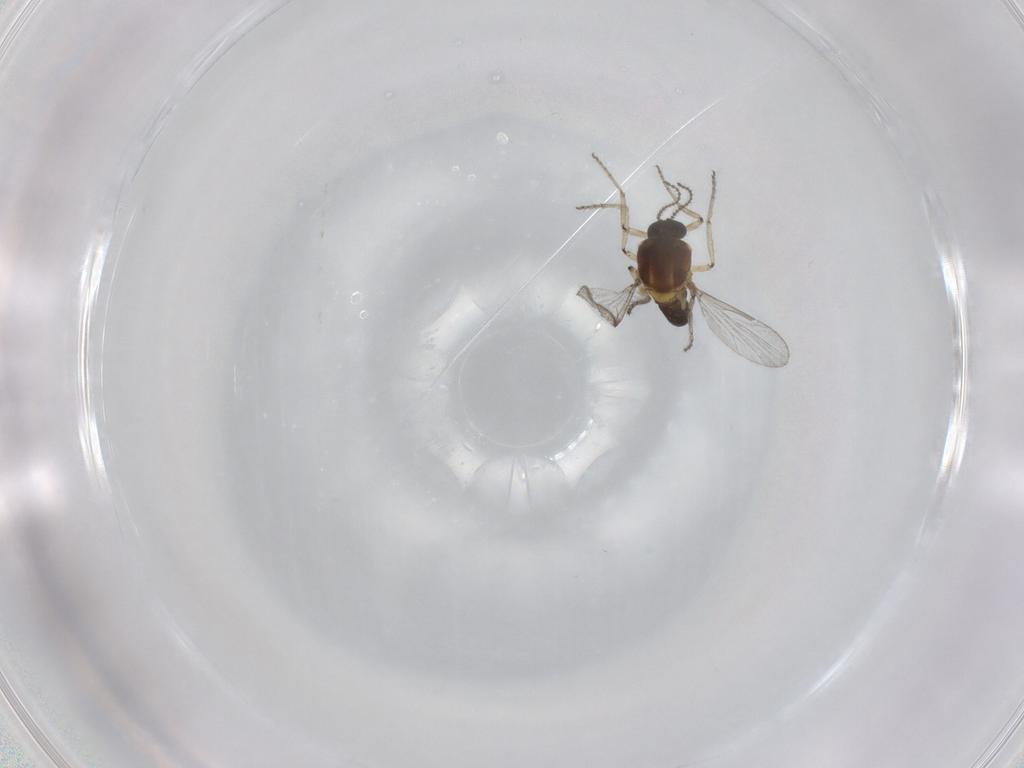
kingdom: Animalia
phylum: Arthropoda
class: Insecta
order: Diptera
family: Ceratopogonidae
